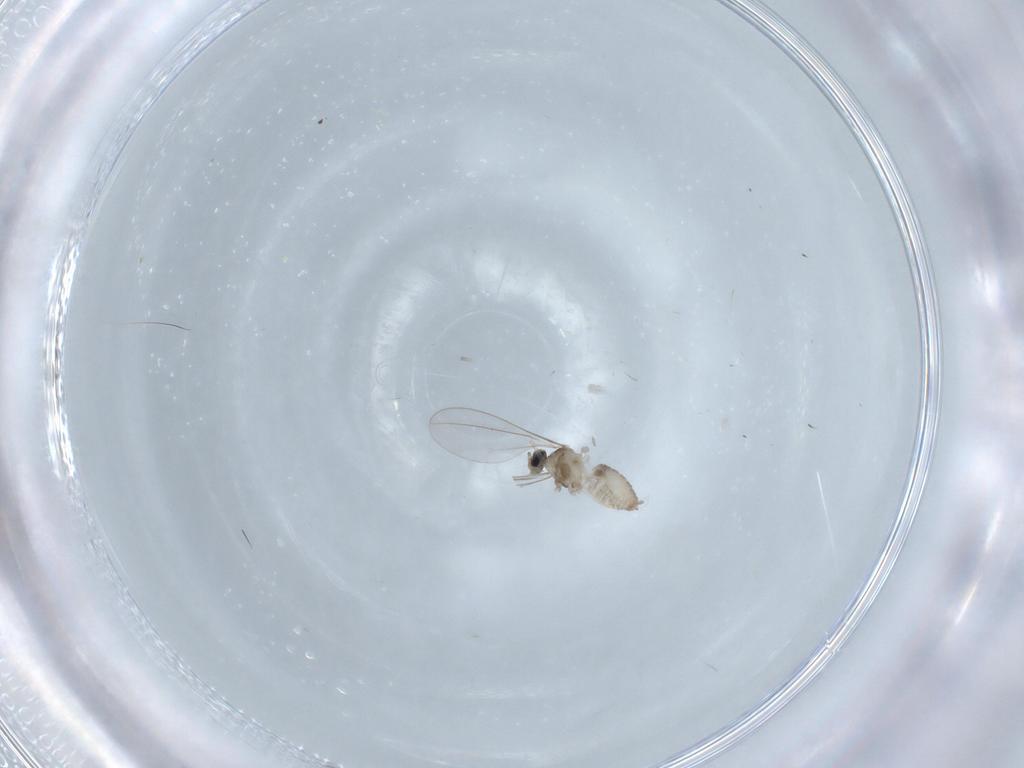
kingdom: Animalia
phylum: Arthropoda
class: Insecta
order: Diptera
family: Cecidomyiidae
